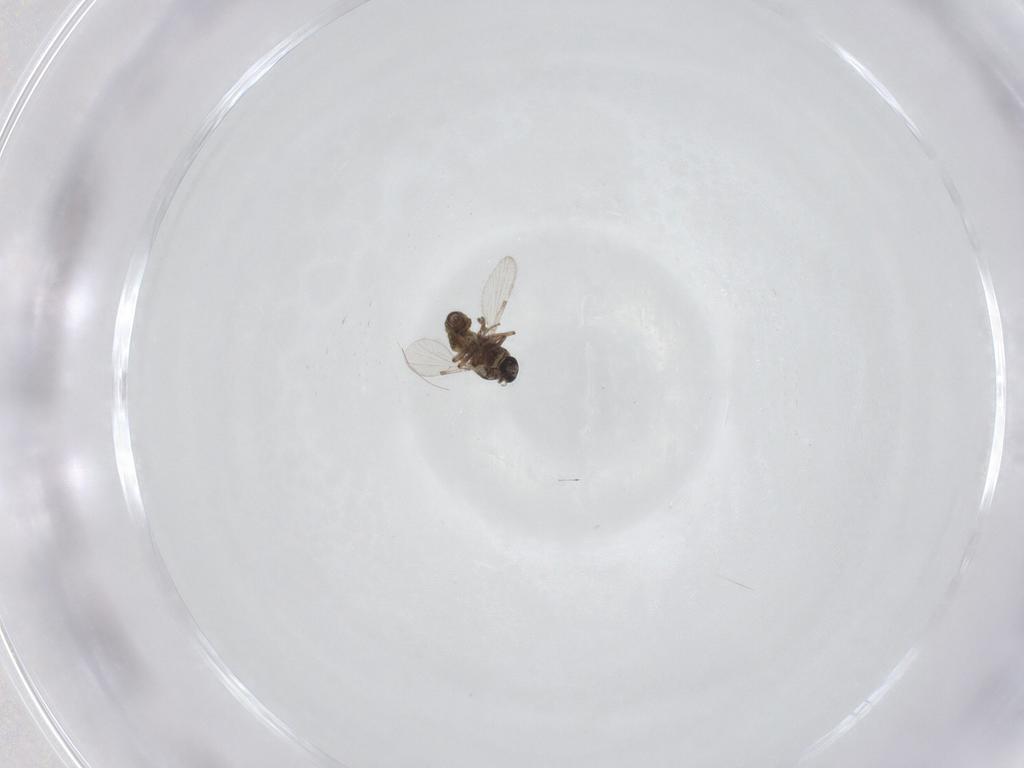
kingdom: Animalia
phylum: Arthropoda
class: Insecta
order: Diptera
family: Ceratopogonidae
